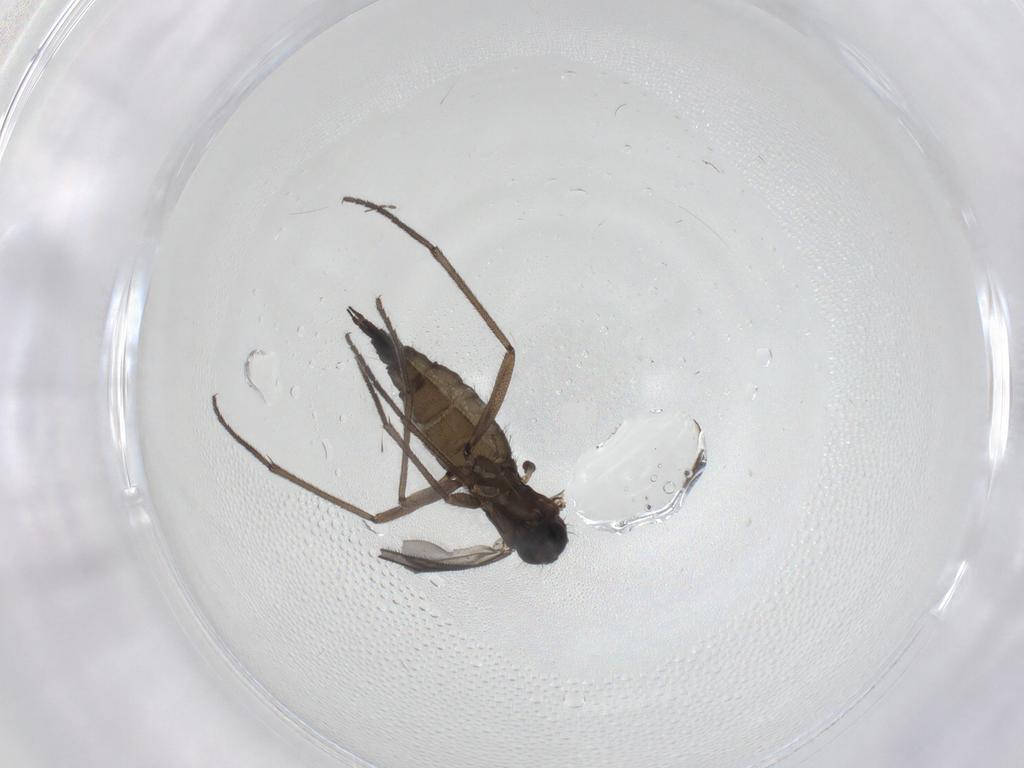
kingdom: Animalia
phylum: Arthropoda
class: Insecta
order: Diptera
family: Sciaridae
